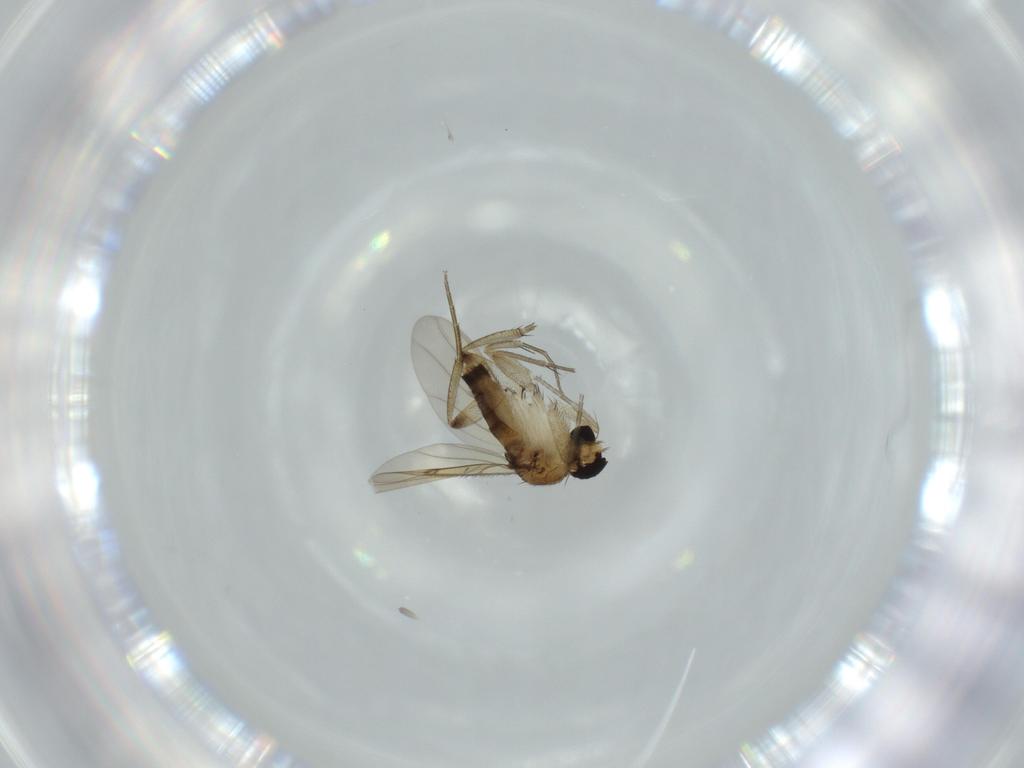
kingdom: Animalia
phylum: Arthropoda
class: Insecta
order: Diptera
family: Phoridae
